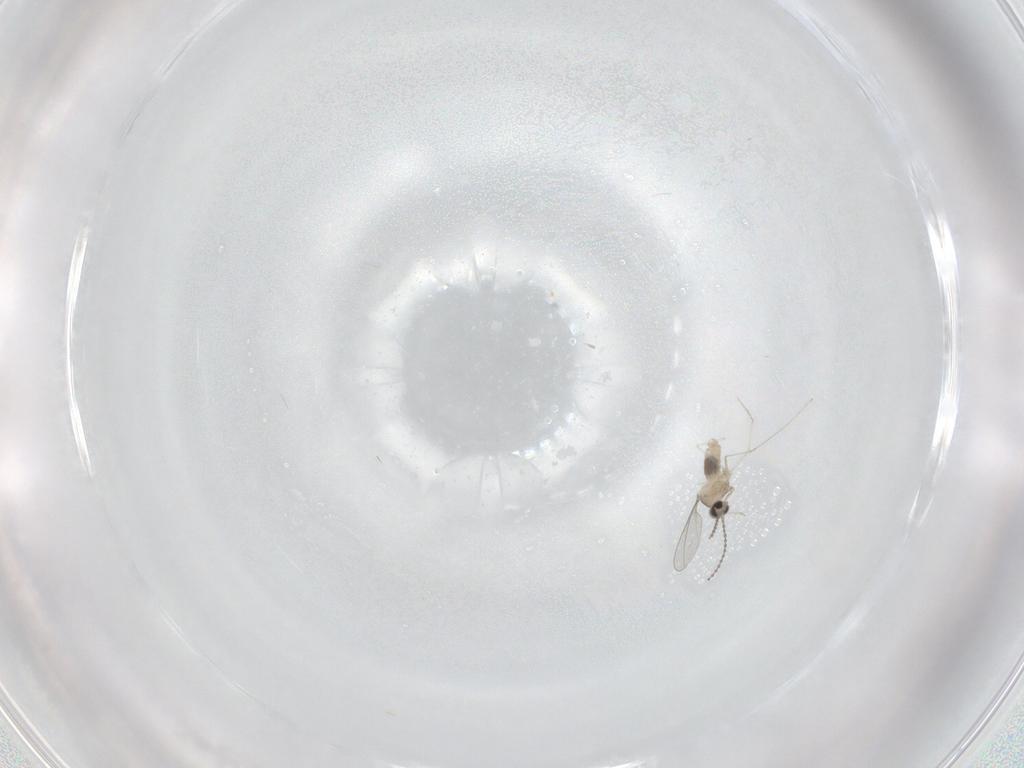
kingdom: Animalia
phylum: Arthropoda
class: Insecta
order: Diptera
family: Cecidomyiidae
